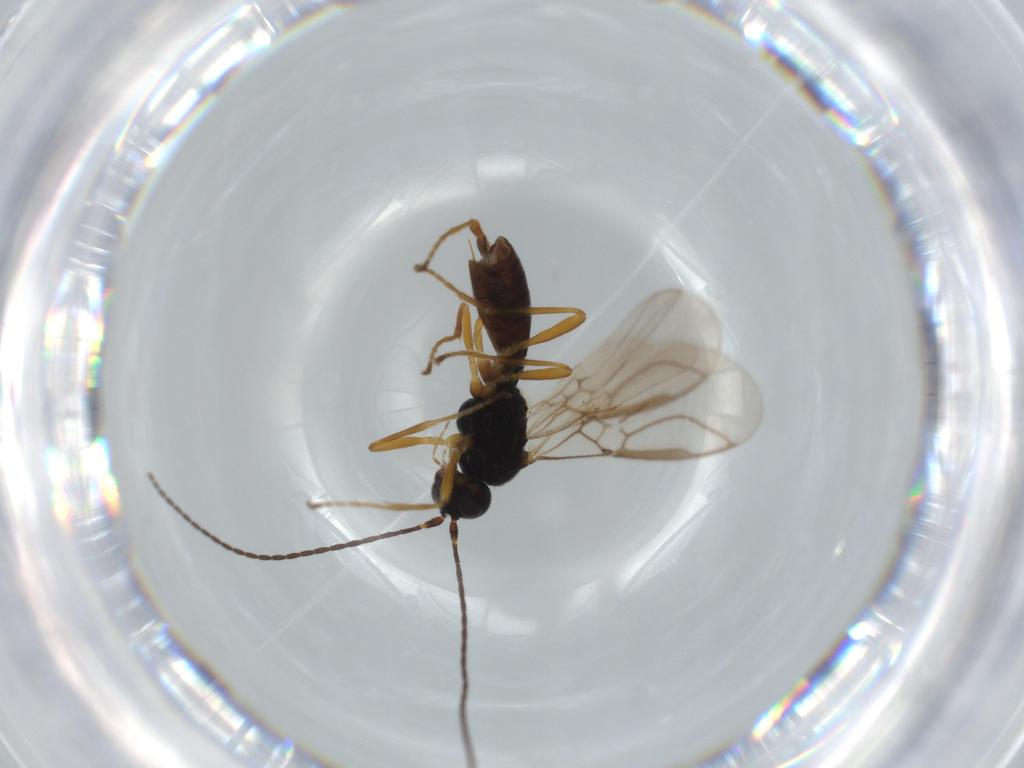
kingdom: Animalia
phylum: Arthropoda
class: Insecta
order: Hymenoptera
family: Braconidae
